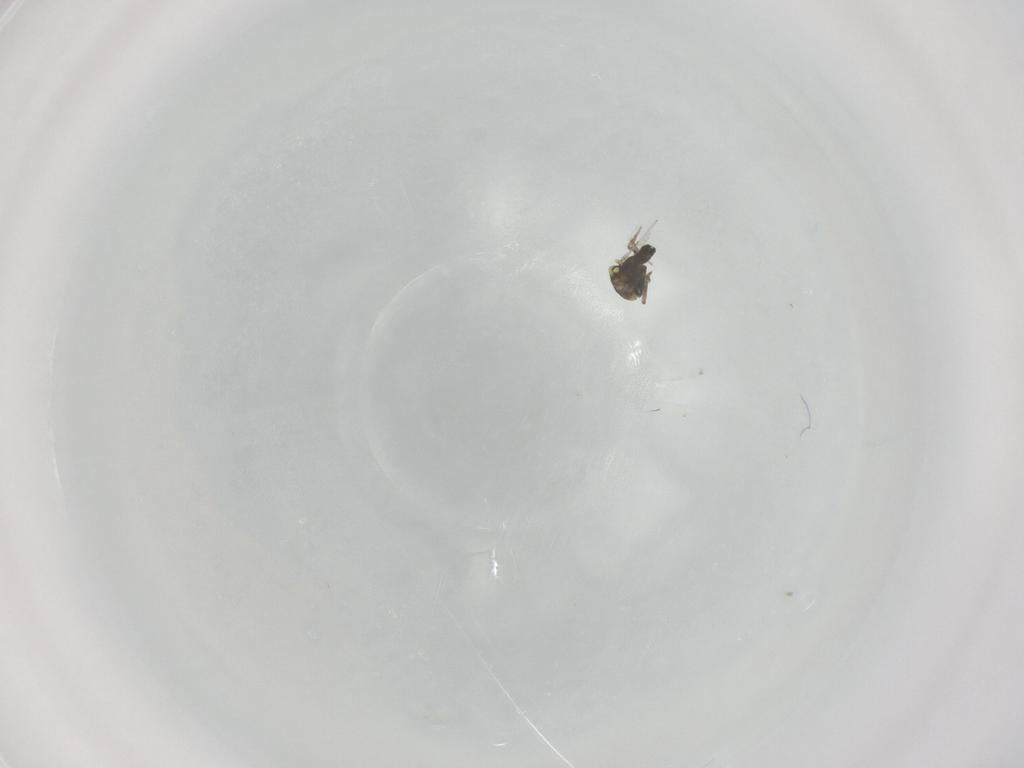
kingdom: Animalia
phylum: Arthropoda
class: Insecta
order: Diptera
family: Ceratopogonidae
